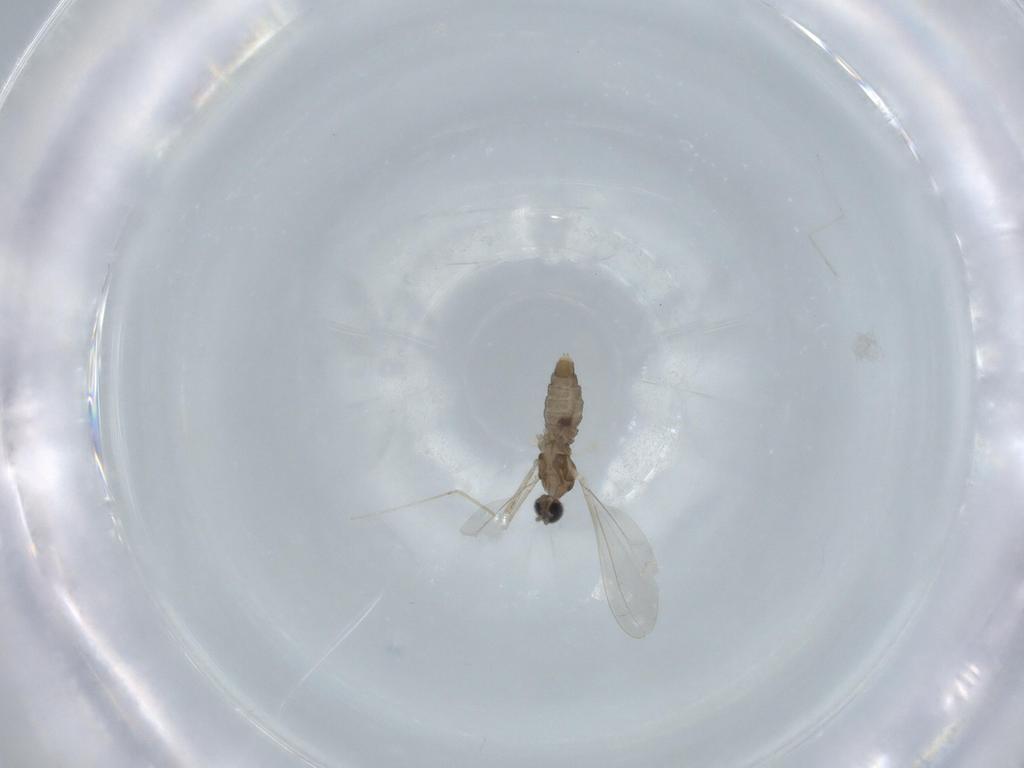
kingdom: Animalia
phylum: Arthropoda
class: Insecta
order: Diptera
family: Cecidomyiidae
